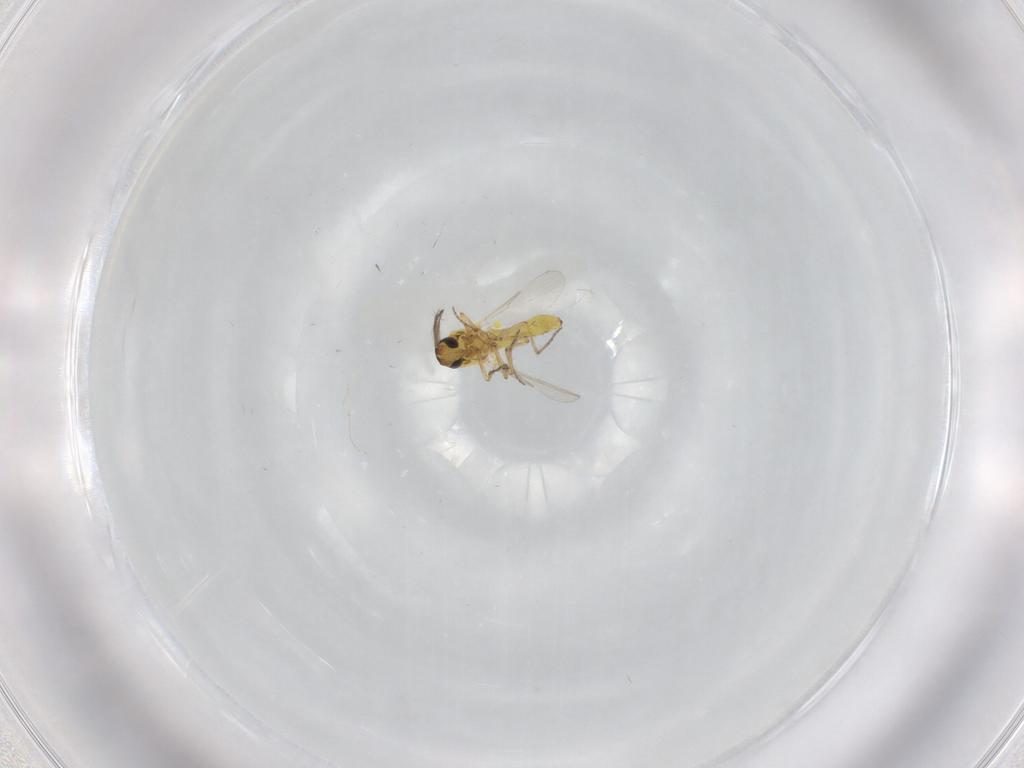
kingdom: Animalia
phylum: Arthropoda
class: Insecta
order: Diptera
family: Ceratopogonidae
